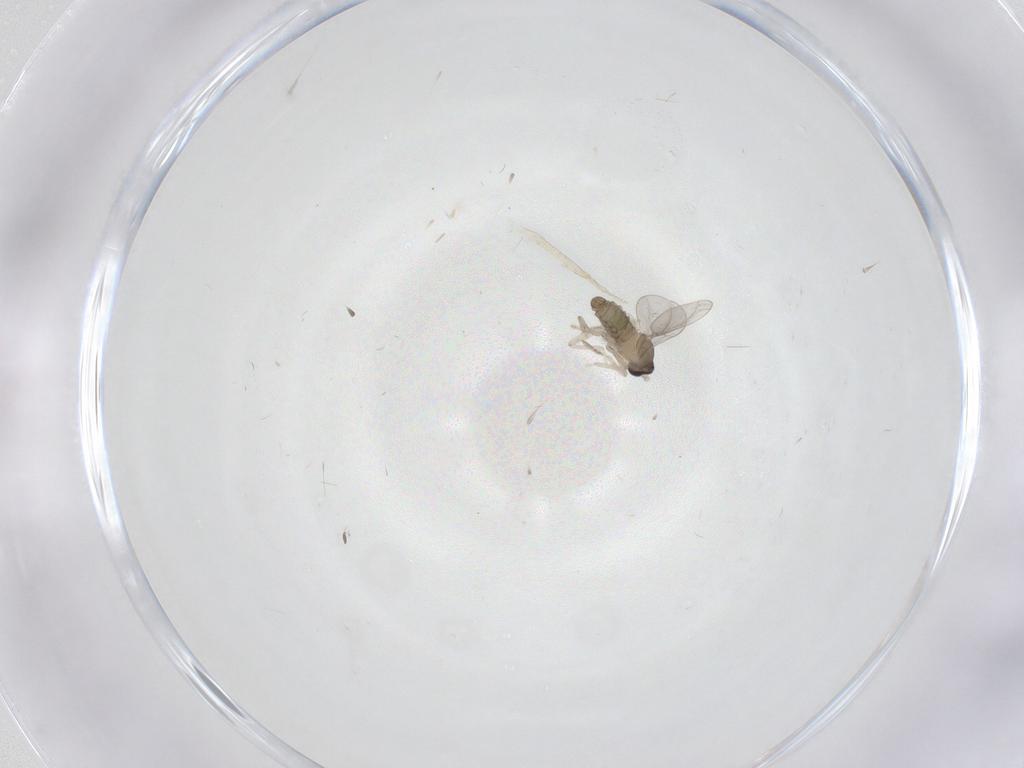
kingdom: Animalia
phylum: Arthropoda
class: Insecta
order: Diptera
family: Cecidomyiidae
